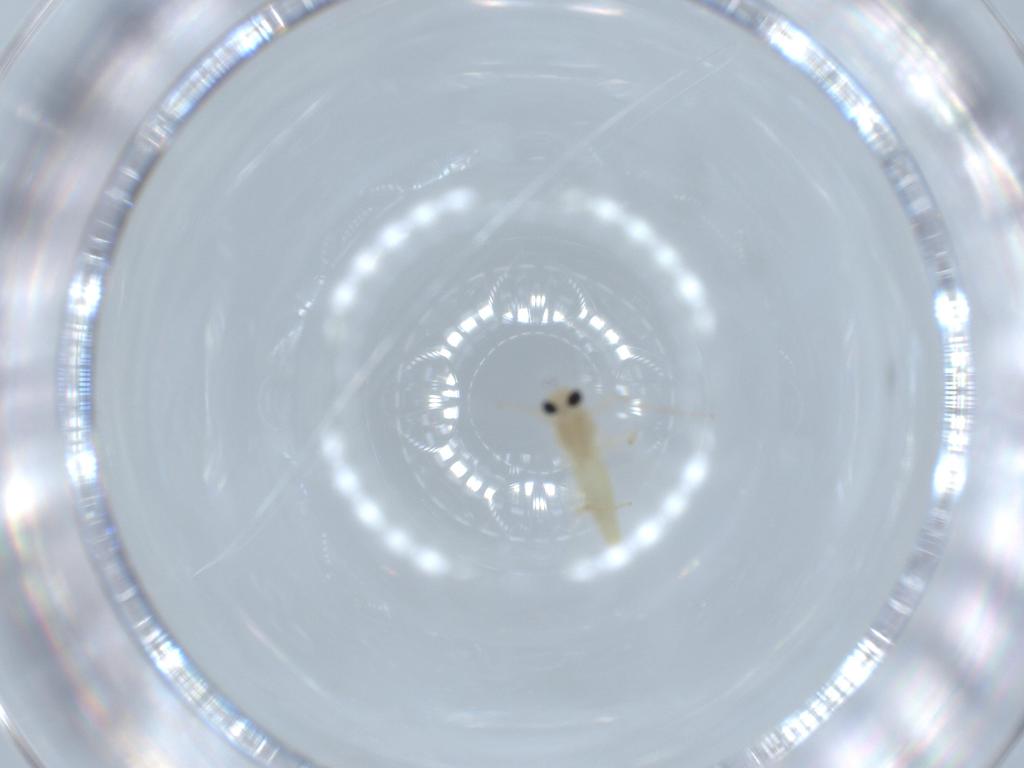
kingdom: Animalia
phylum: Arthropoda
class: Insecta
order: Diptera
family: Chironomidae
